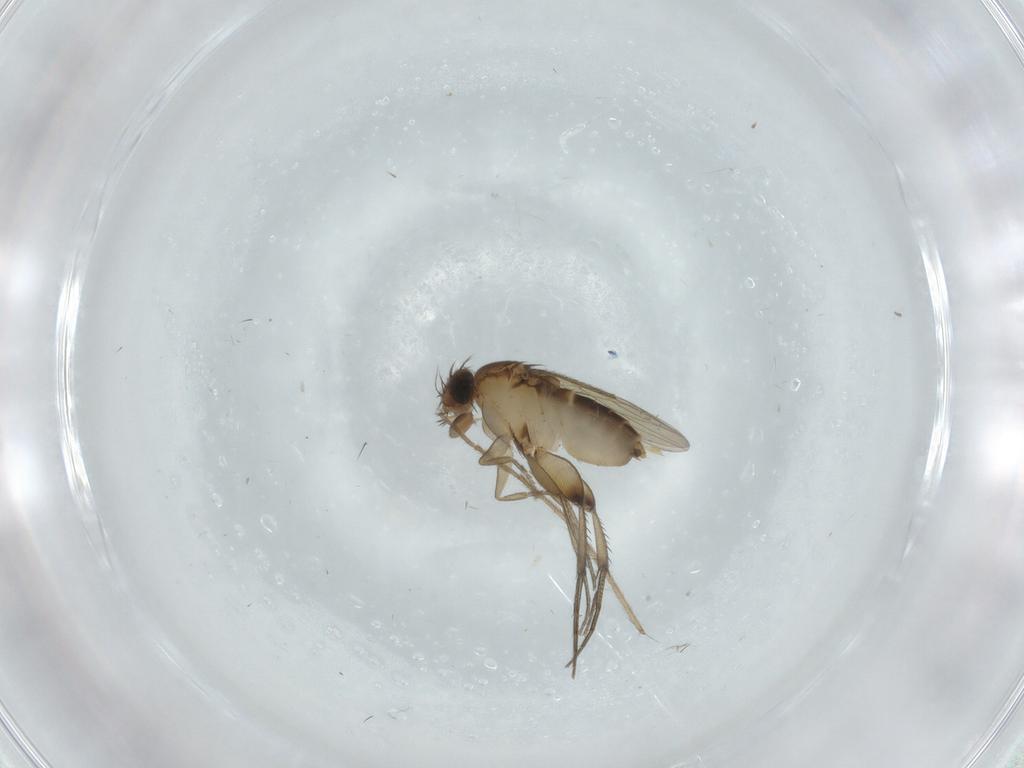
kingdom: Animalia
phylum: Arthropoda
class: Insecta
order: Diptera
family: Phoridae
